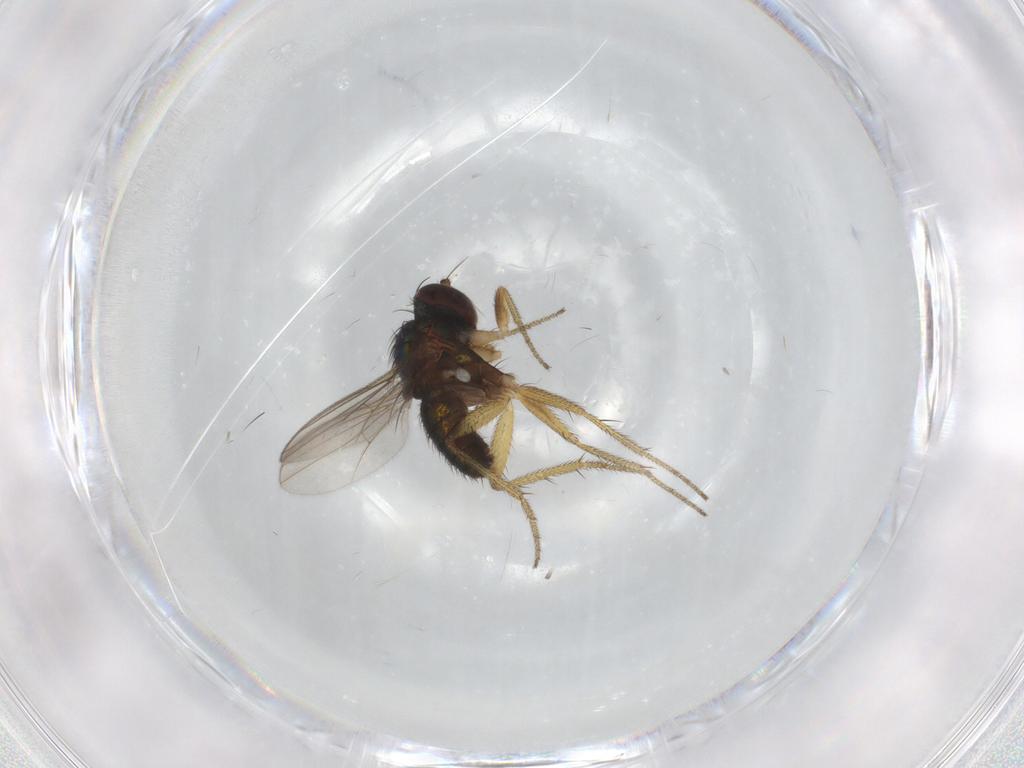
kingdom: Animalia
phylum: Arthropoda
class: Insecta
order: Diptera
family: Dolichopodidae
